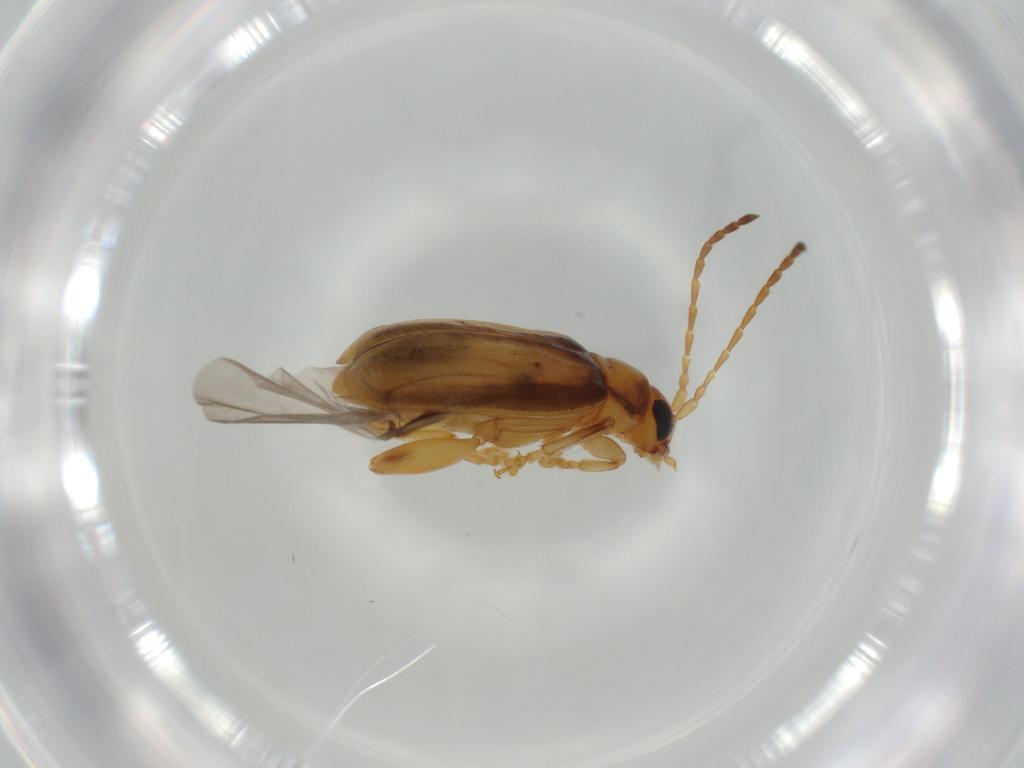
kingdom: Animalia
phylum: Arthropoda
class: Insecta
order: Coleoptera
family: Chrysomelidae
